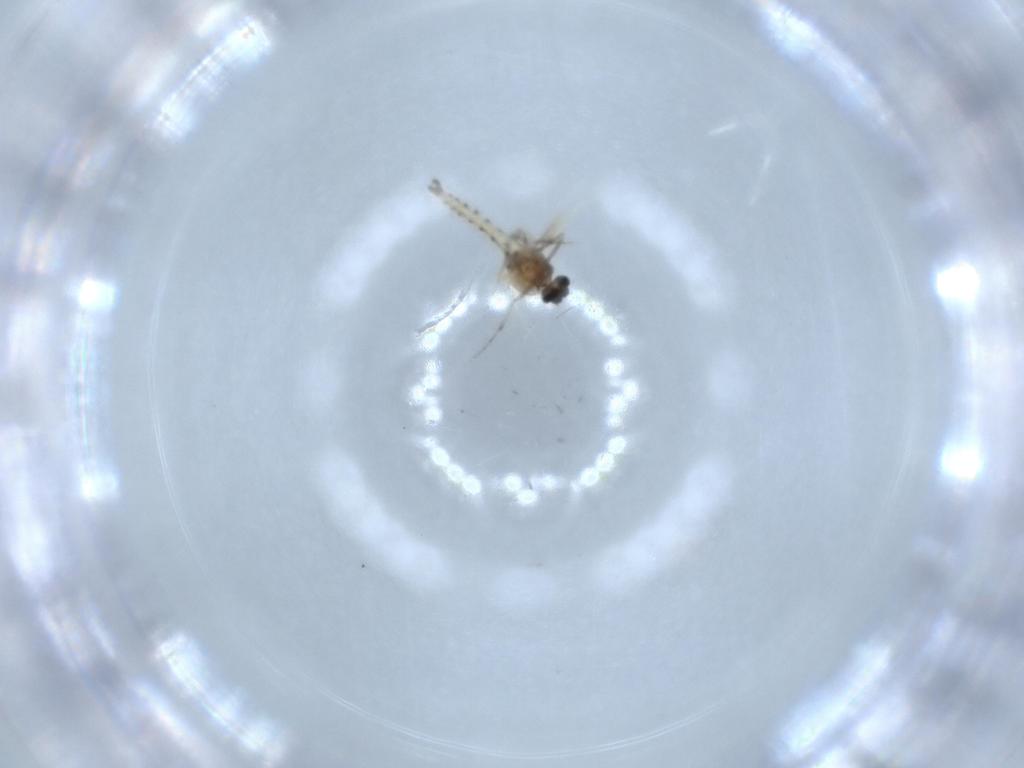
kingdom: Animalia
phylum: Arthropoda
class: Insecta
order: Diptera
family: Ceratopogonidae
